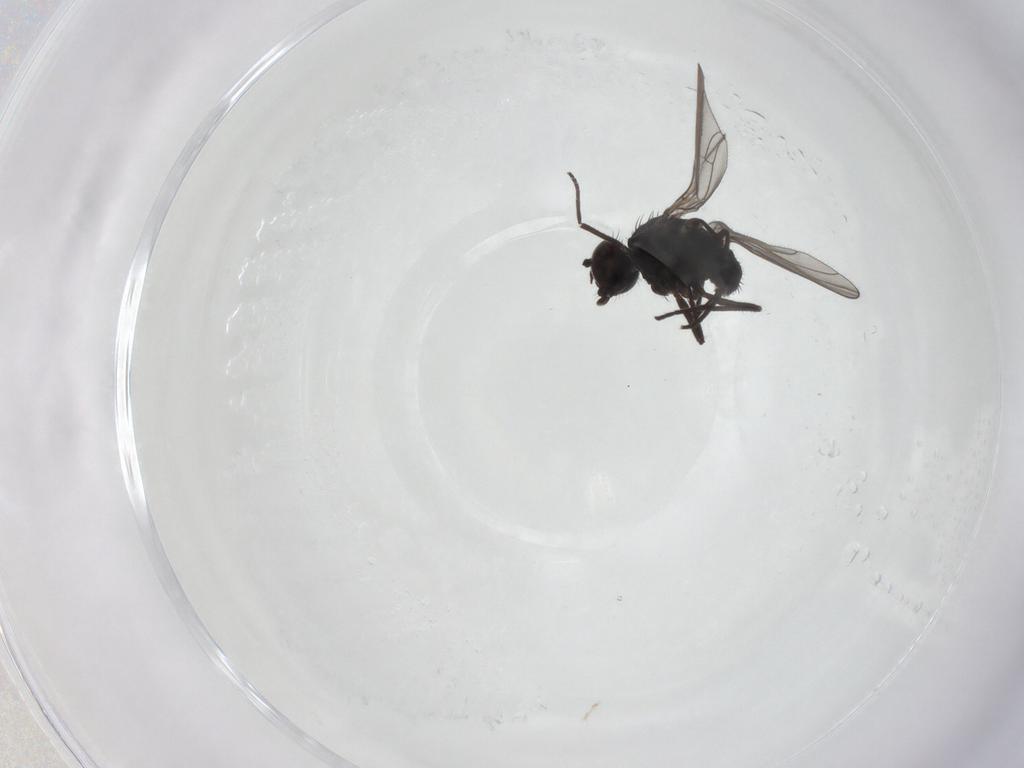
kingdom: Animalia
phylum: Arthropoda
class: Insecta
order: Diptera
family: Dolichopodidae
